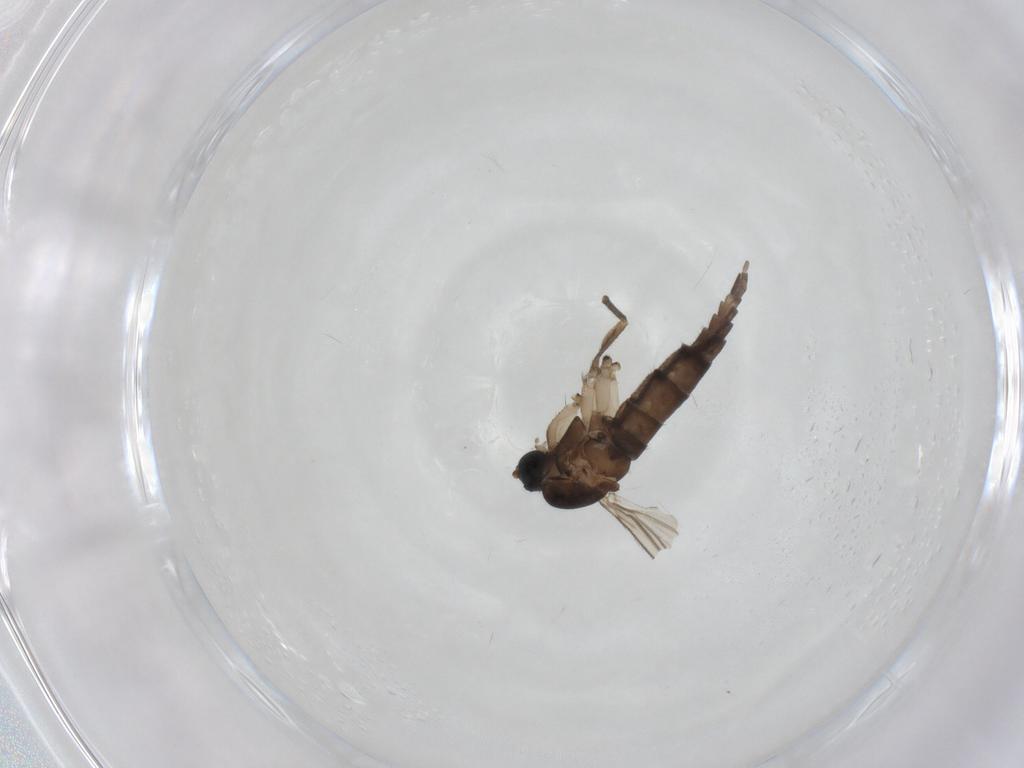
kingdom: Animalia
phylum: Arthropoda
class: Insecta
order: Diptera
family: Sciaridae
